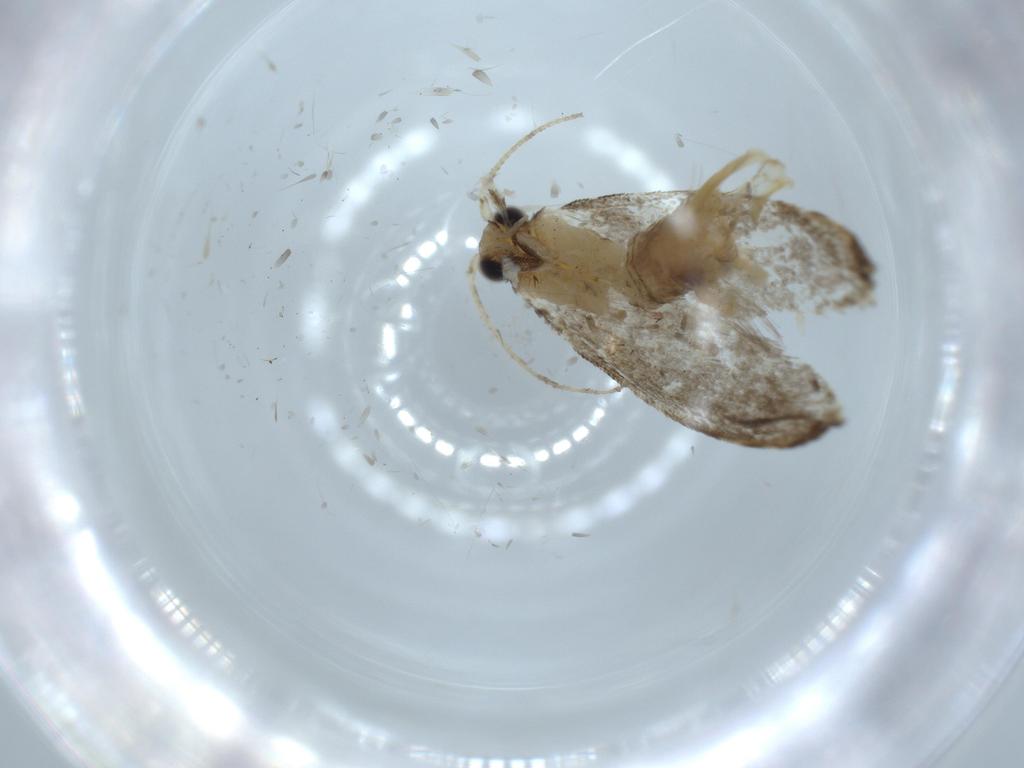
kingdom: Animalia
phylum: Arthropoda
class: Insecta
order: Lepidoptera
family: Tineidae
